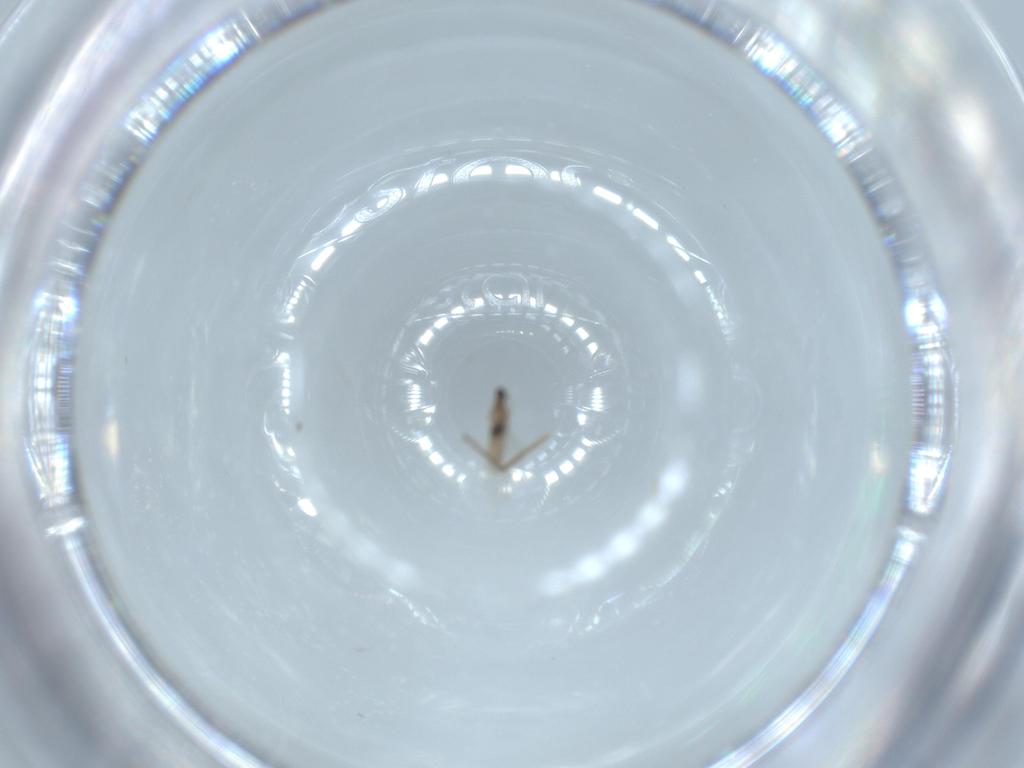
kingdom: Animalia
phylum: Arthropoda
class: Insecta
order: Diptera
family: Cecidomyiidae
